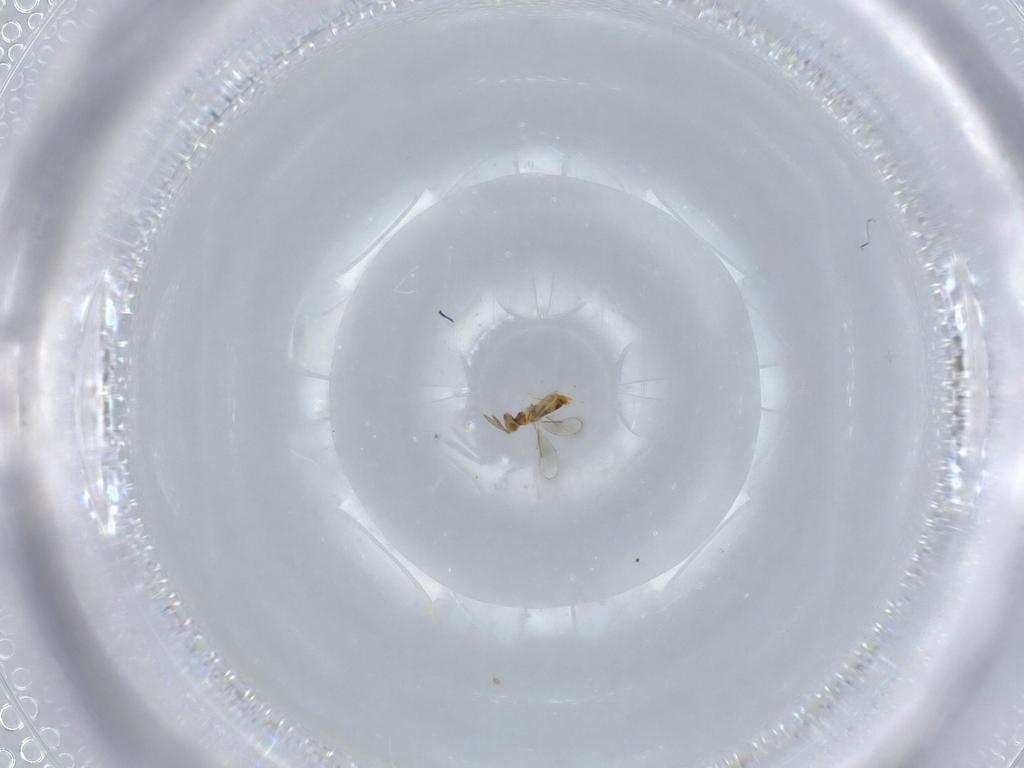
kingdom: Animalia
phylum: Arthropoda
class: Insecta
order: Hymenoptera
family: Aphelinidae
